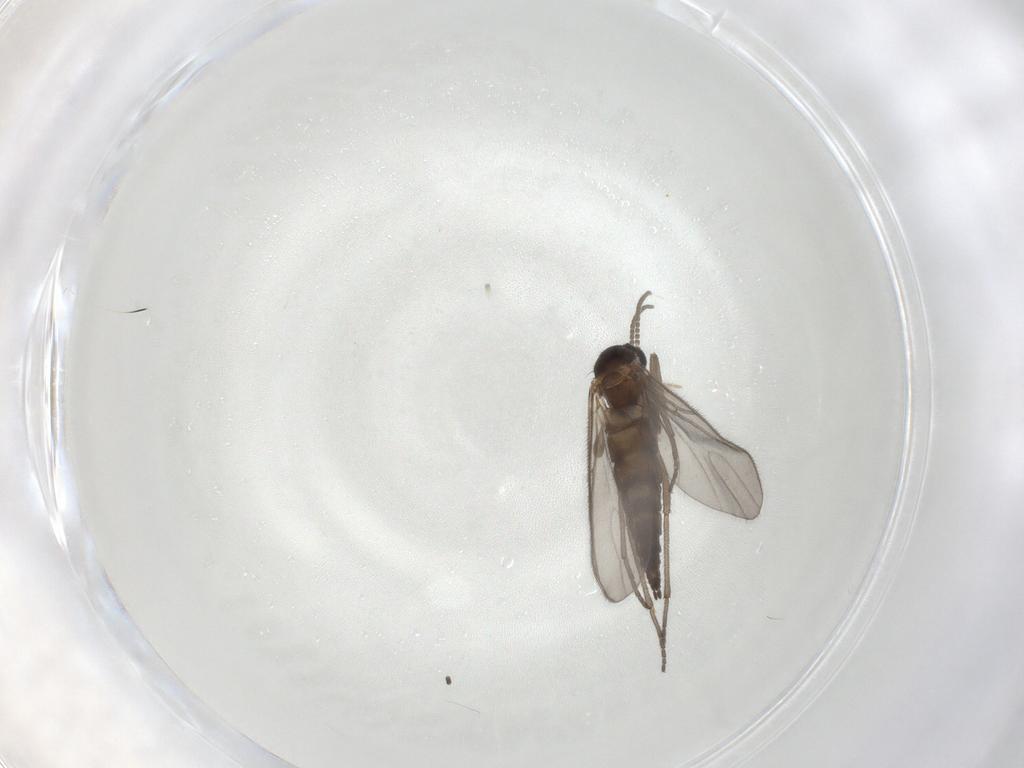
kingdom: Animalia
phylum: Arthropoda
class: Insecta
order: Diptera
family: Sciaridae
